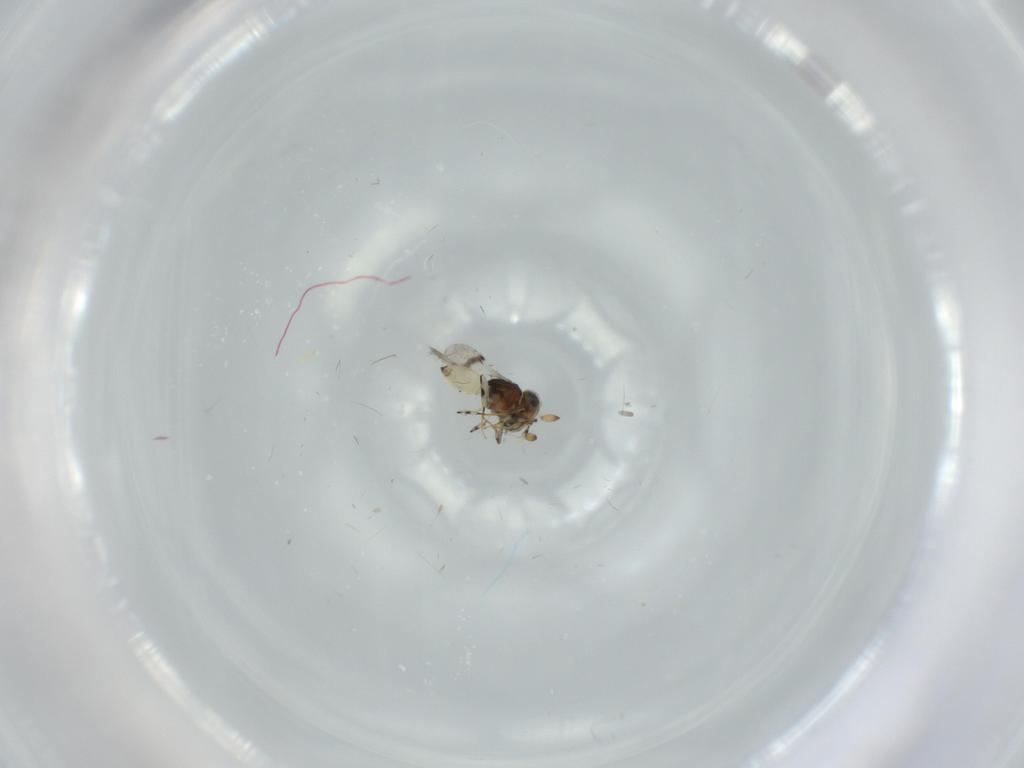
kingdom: Animalia
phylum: Arthropoda
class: Insecta
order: Hymenoptera
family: Scelionidae
